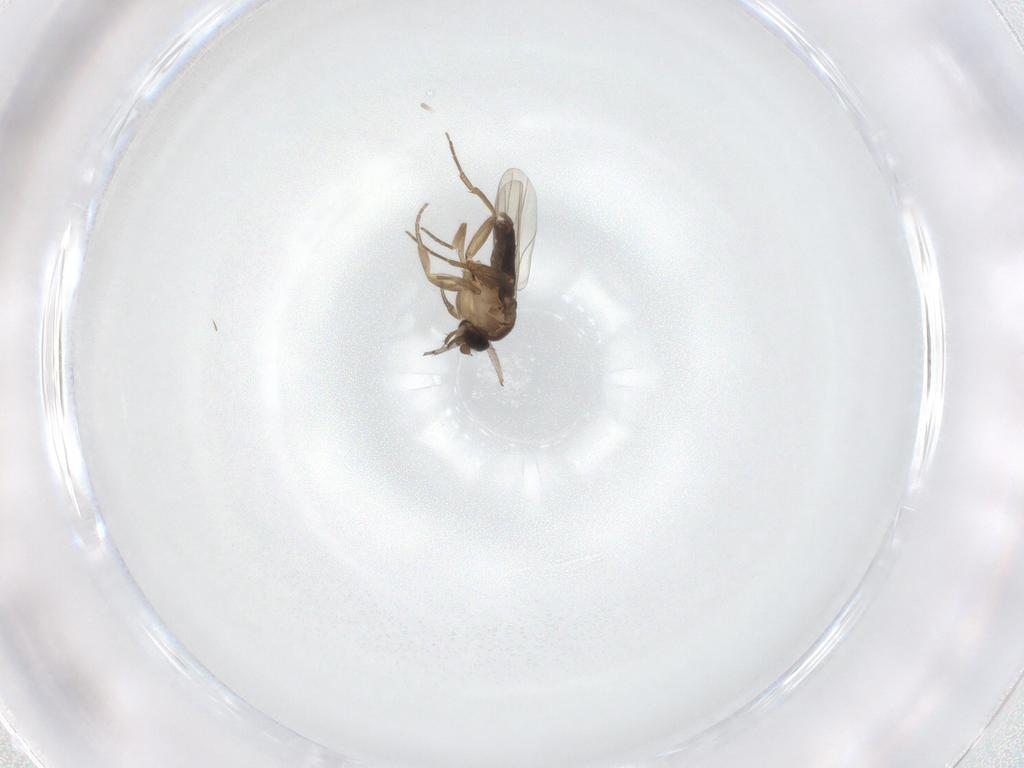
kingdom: Animalia
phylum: Arthropoda
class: Insecta
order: Diptera
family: Sciaridae
